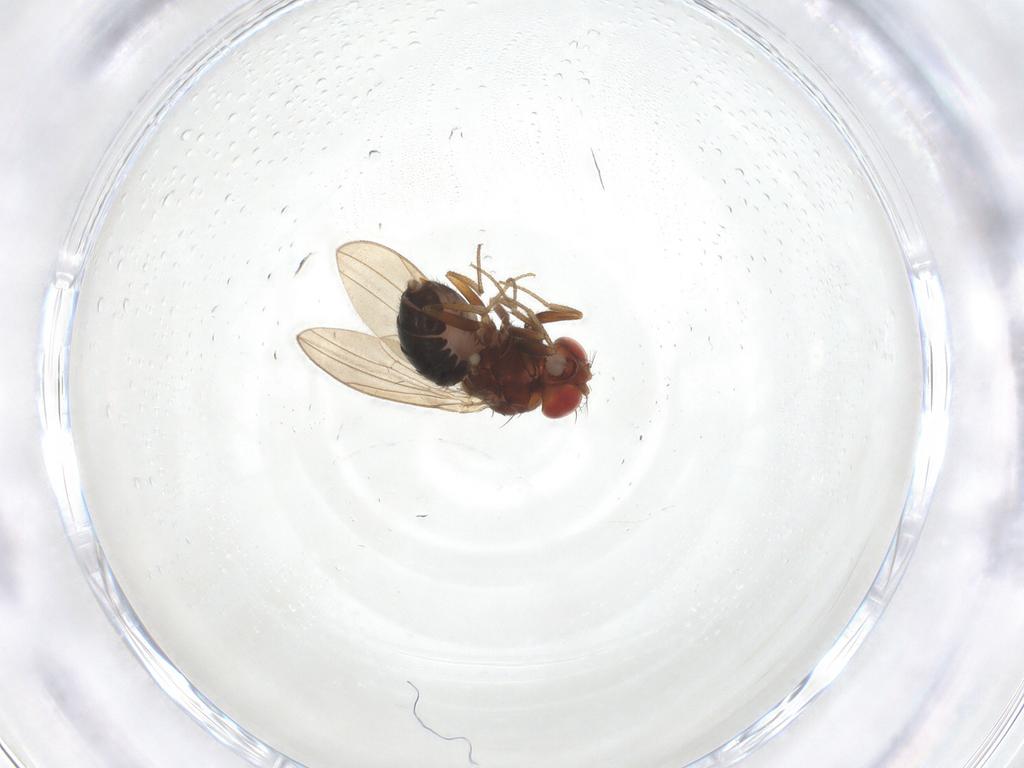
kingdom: Animalia
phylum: Arthropoda
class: Insecta
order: Diptera
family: Drosophilidae
